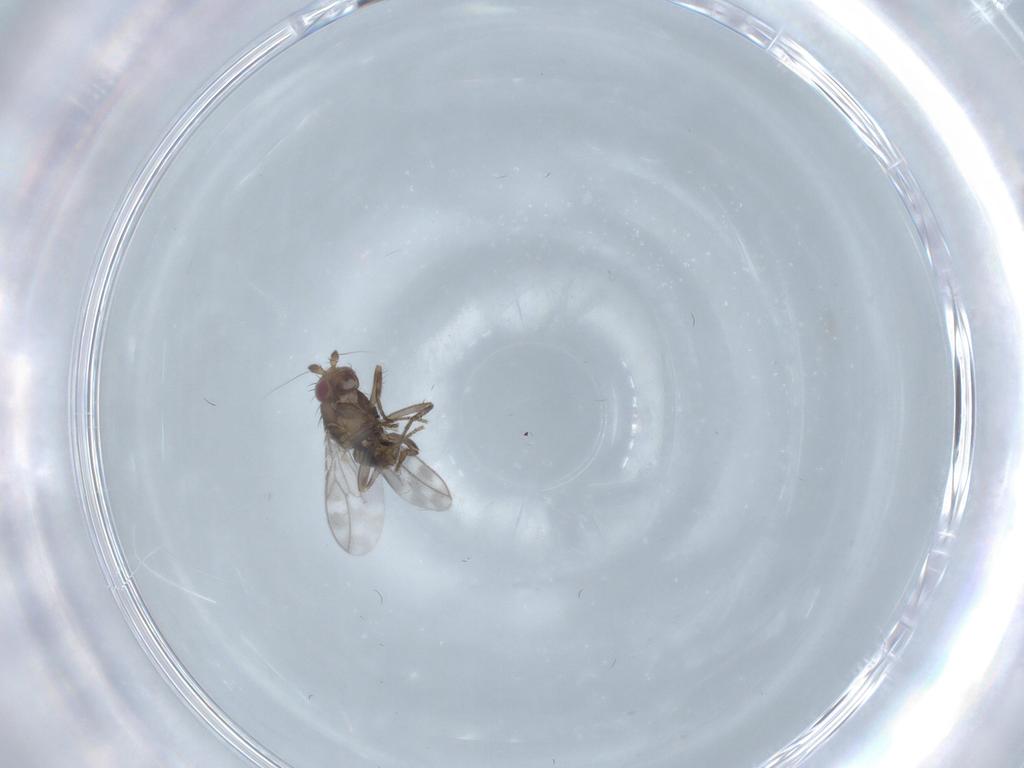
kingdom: Animalia
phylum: Arthropoda
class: Insecta
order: Diptera
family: Sphaeroceridae
